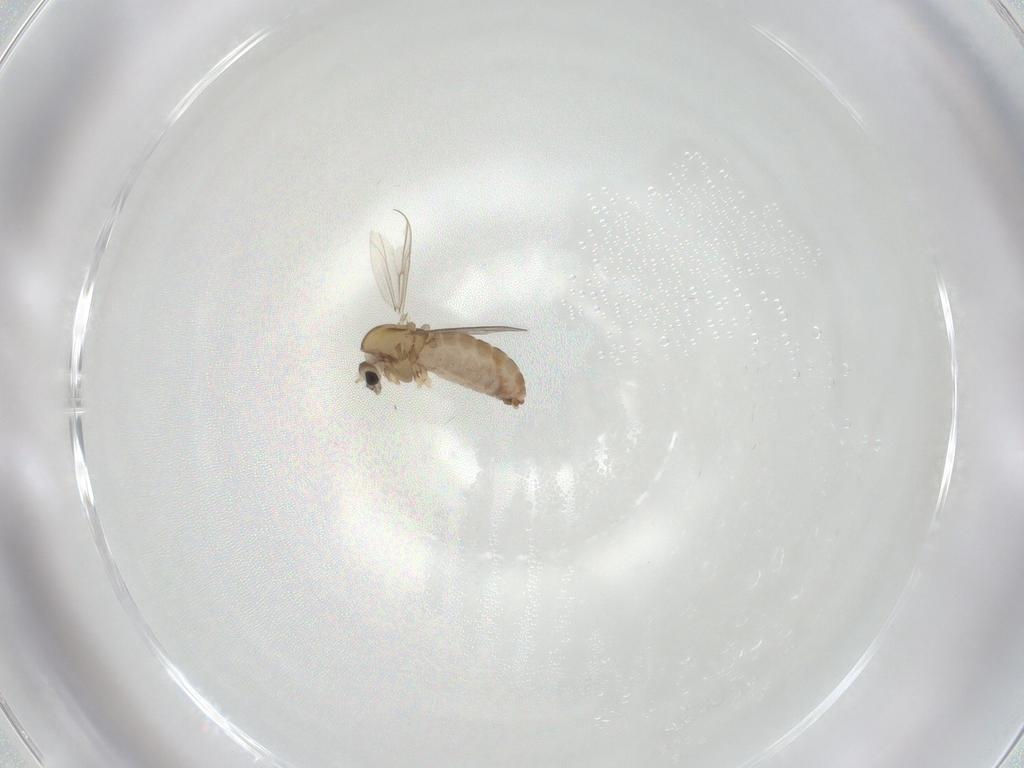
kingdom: Animalia
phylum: Arthropoda
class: Insecta
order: Diptera
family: Chironomidae
